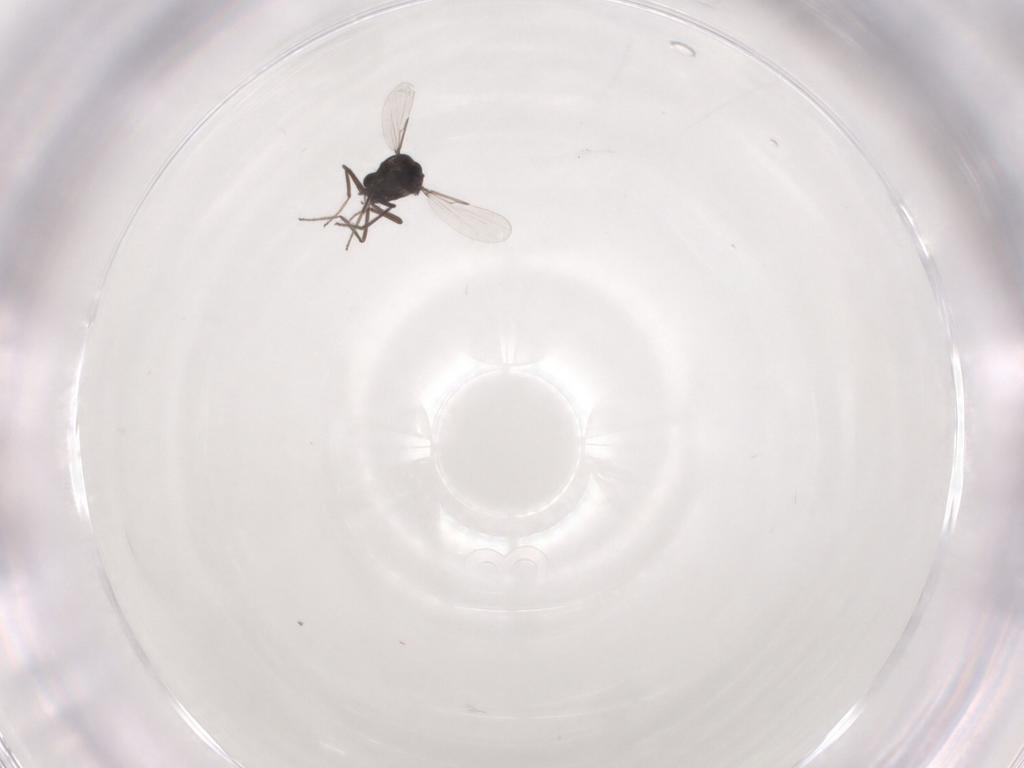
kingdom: Animalia
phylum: Arthropoda
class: Insecta
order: Diptera
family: Ceratopogonidae
